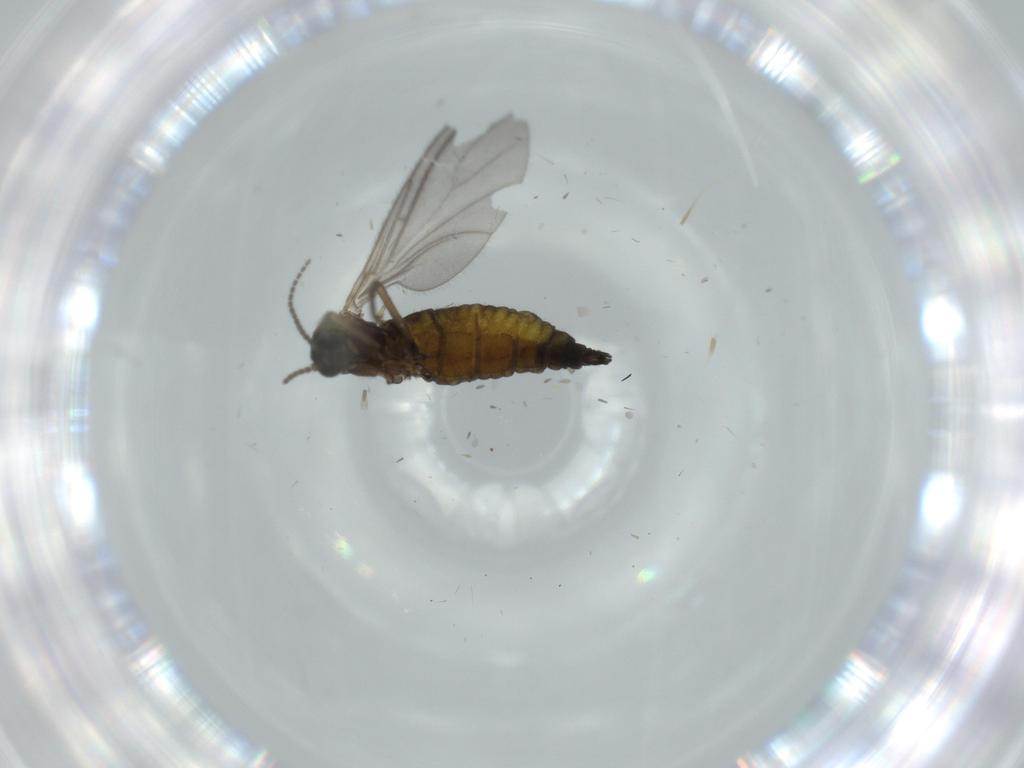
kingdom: Animalia
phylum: Arthropoda
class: Insecta
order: Diptera
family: Sciaridae
